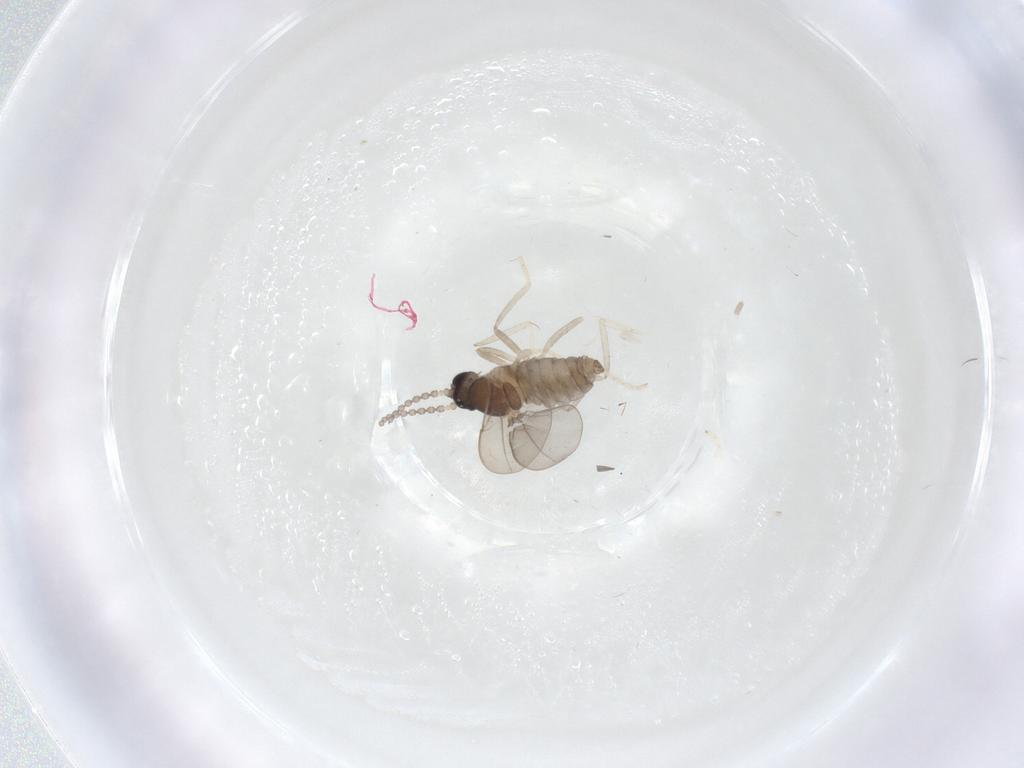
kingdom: Animalia
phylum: Arthropoda
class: Insecta
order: Diptera
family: Cecidomyiidae
